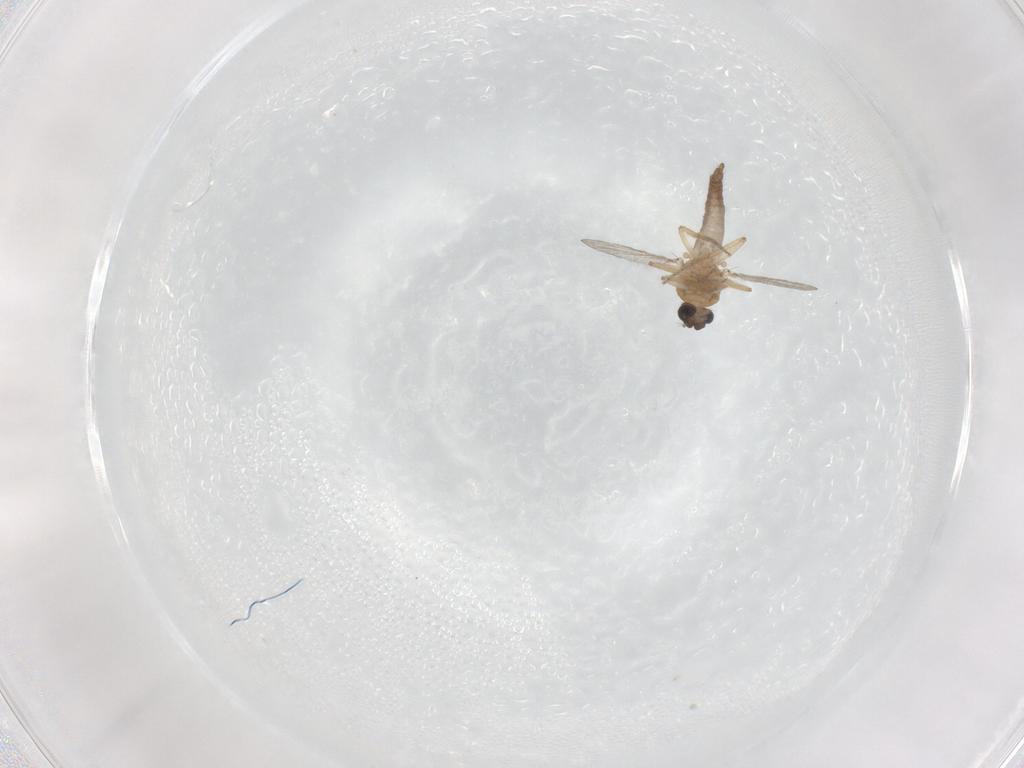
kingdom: Animalia
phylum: Arthropoda
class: Insecta
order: Diptera
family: Ceratopogonidae
